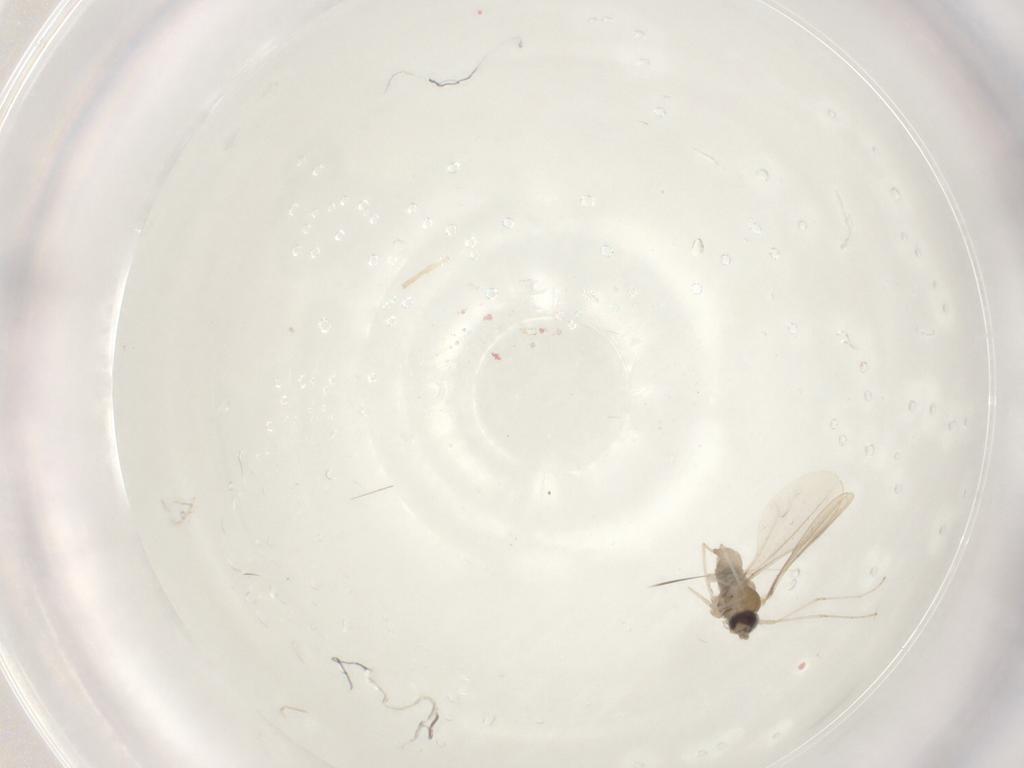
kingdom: Animalia
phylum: Arthropoda
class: Insecta
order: Diptera
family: Cecidomyiidae
